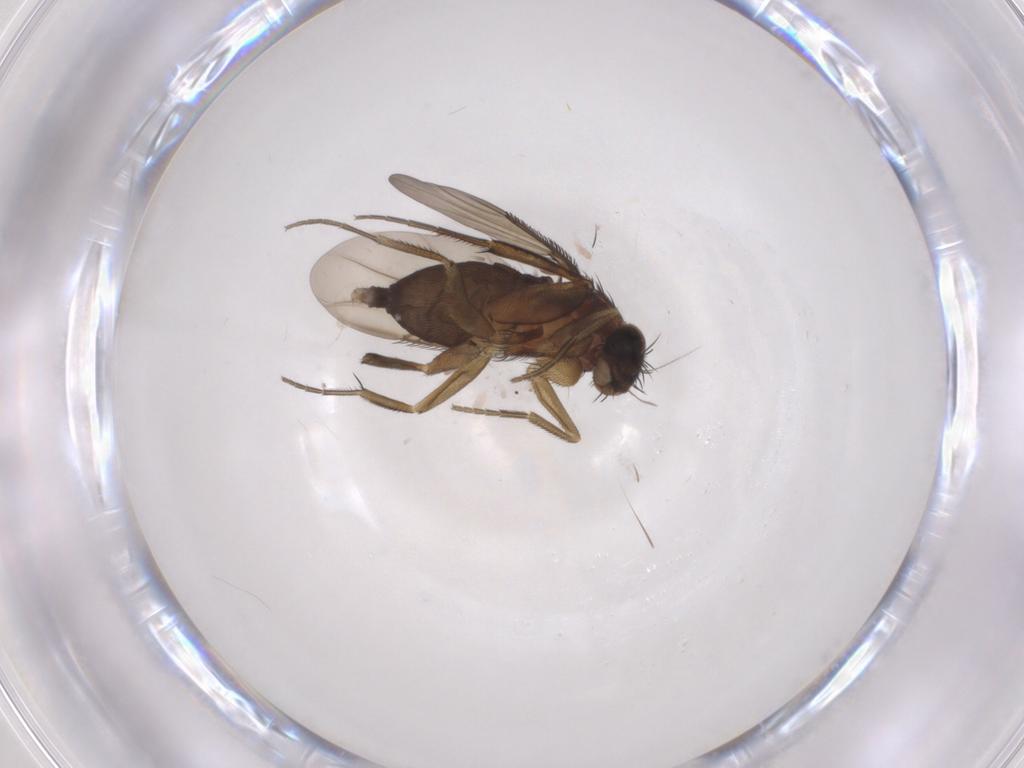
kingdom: Animalia
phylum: Arthropoda
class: Insecta
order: Diptera
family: Phoridae
